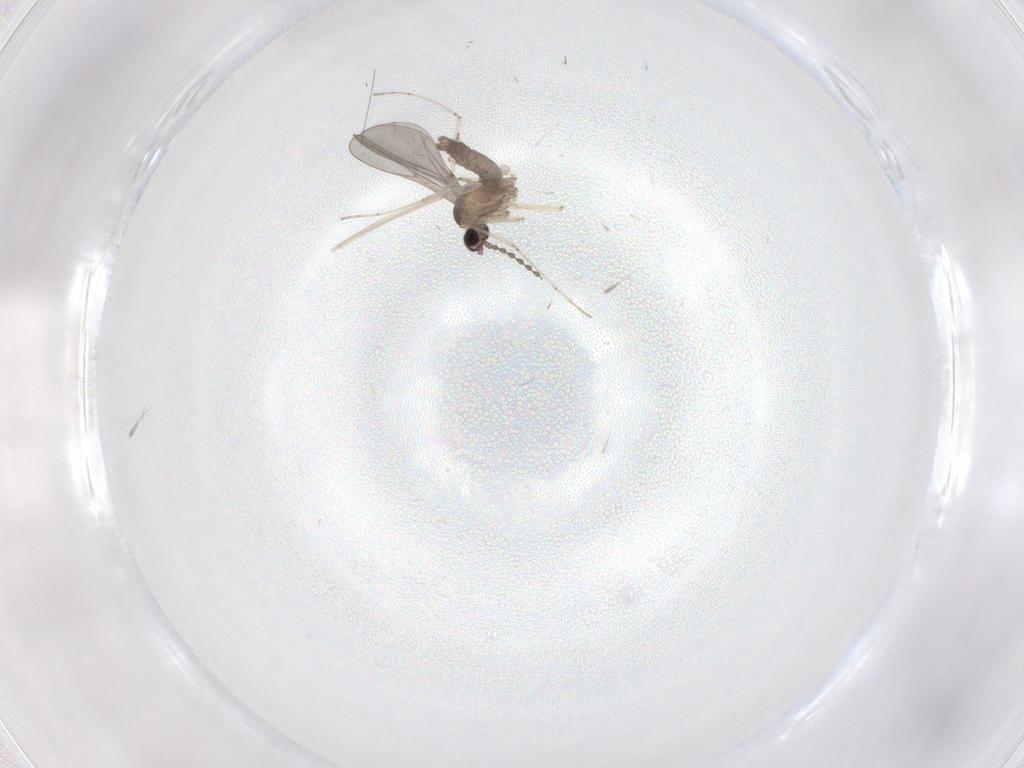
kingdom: Animalia
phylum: Arthropoda
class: Insecta
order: Diptera
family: Cecidomyiidae
